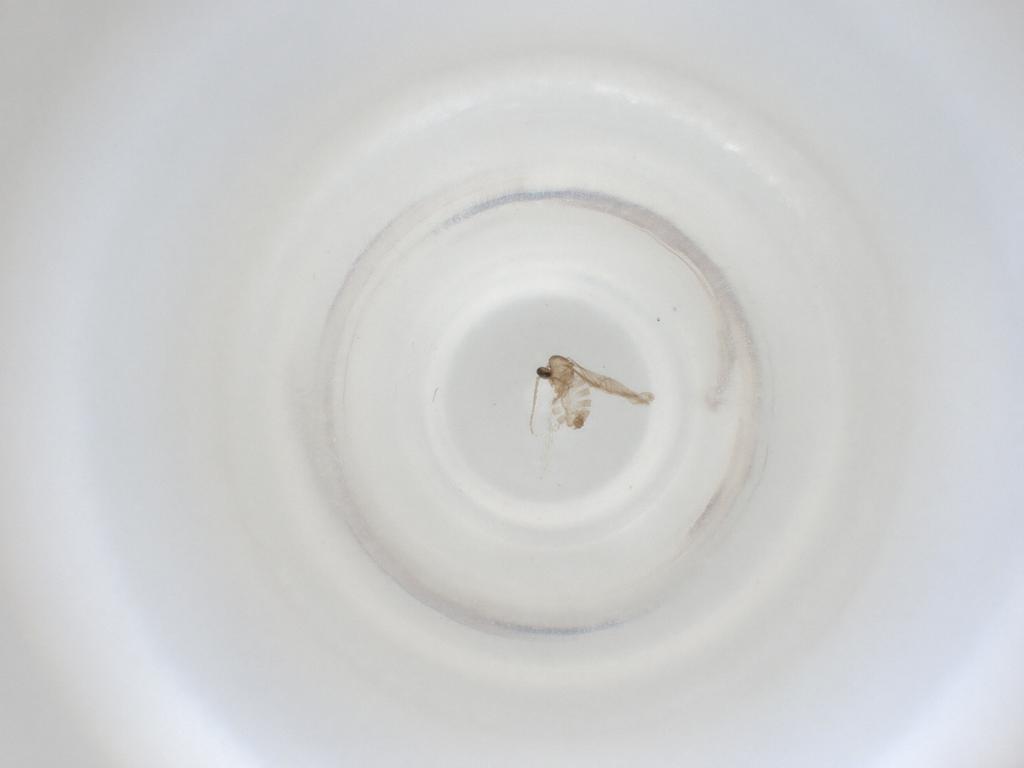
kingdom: Animalia
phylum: Arthropoda
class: Insecta
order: Diptera
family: Cecidomyiidae
